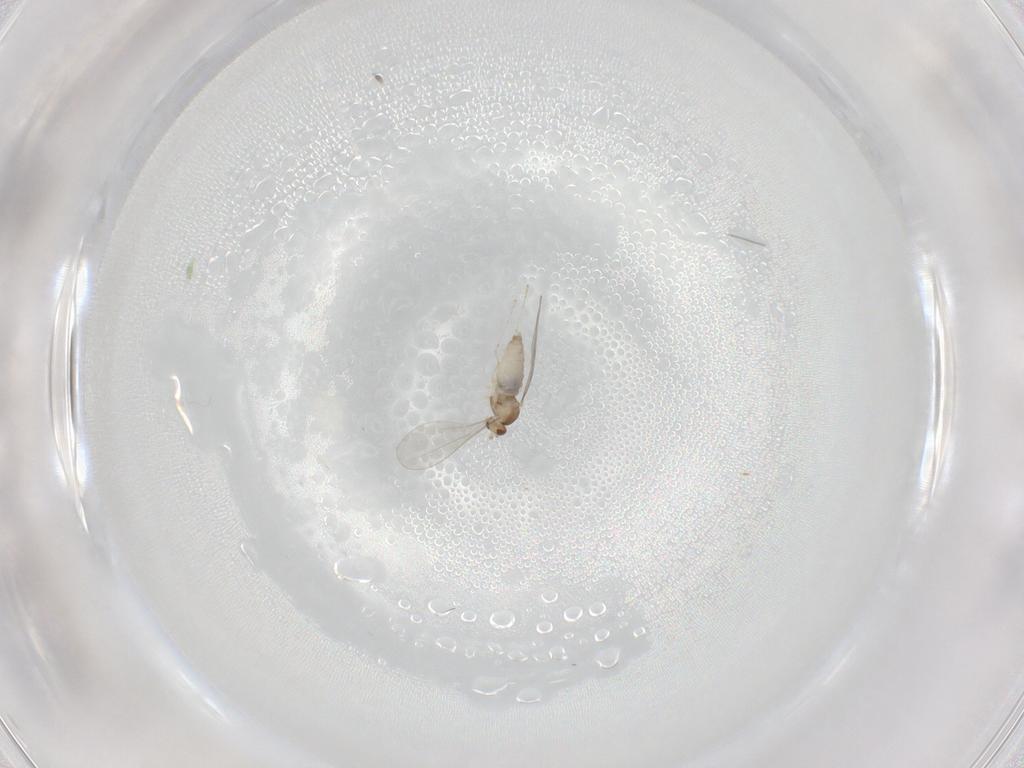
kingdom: Animalia
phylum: Arthropoda
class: Insecta
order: Diptera
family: Cecidomyiidae
